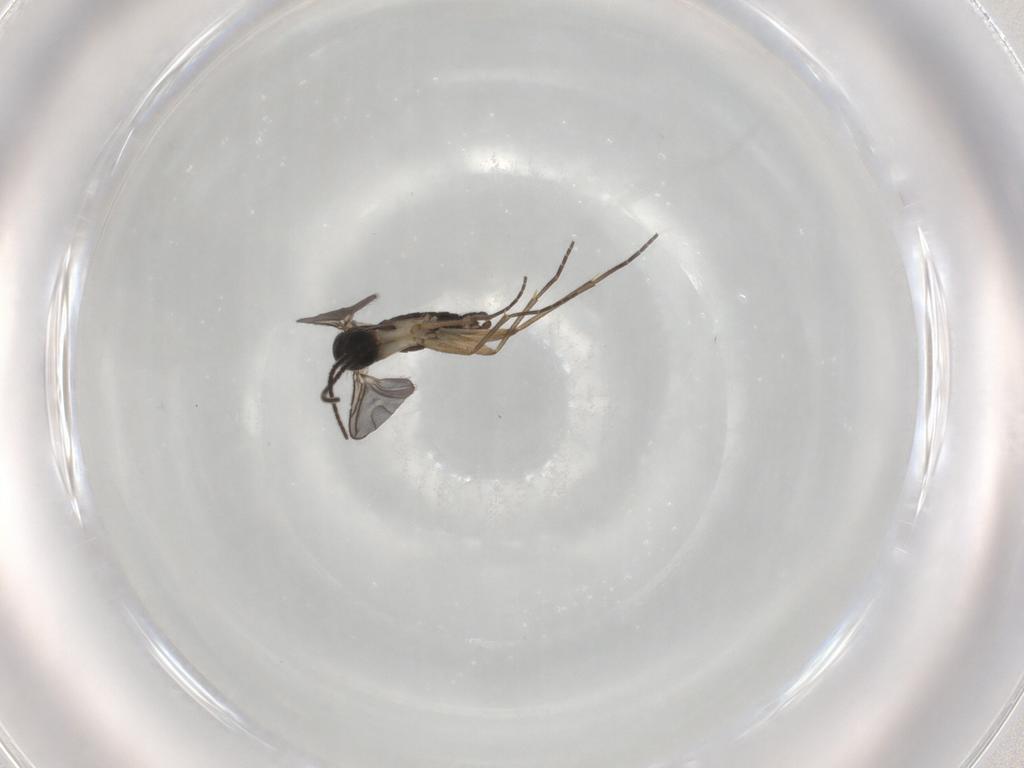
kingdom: Animalia
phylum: Arthropoda
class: Insecta
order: Diptera
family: Sciaridae
